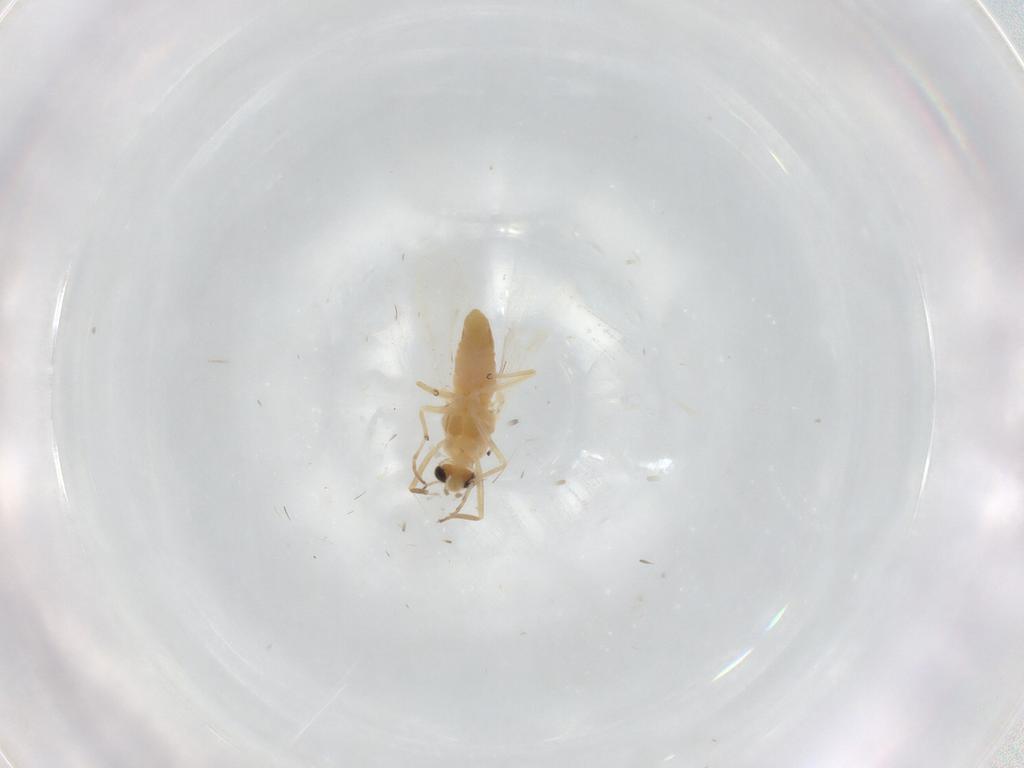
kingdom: Animalia
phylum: Arthropoda
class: Insecta
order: Diptera
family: Chironomidae
